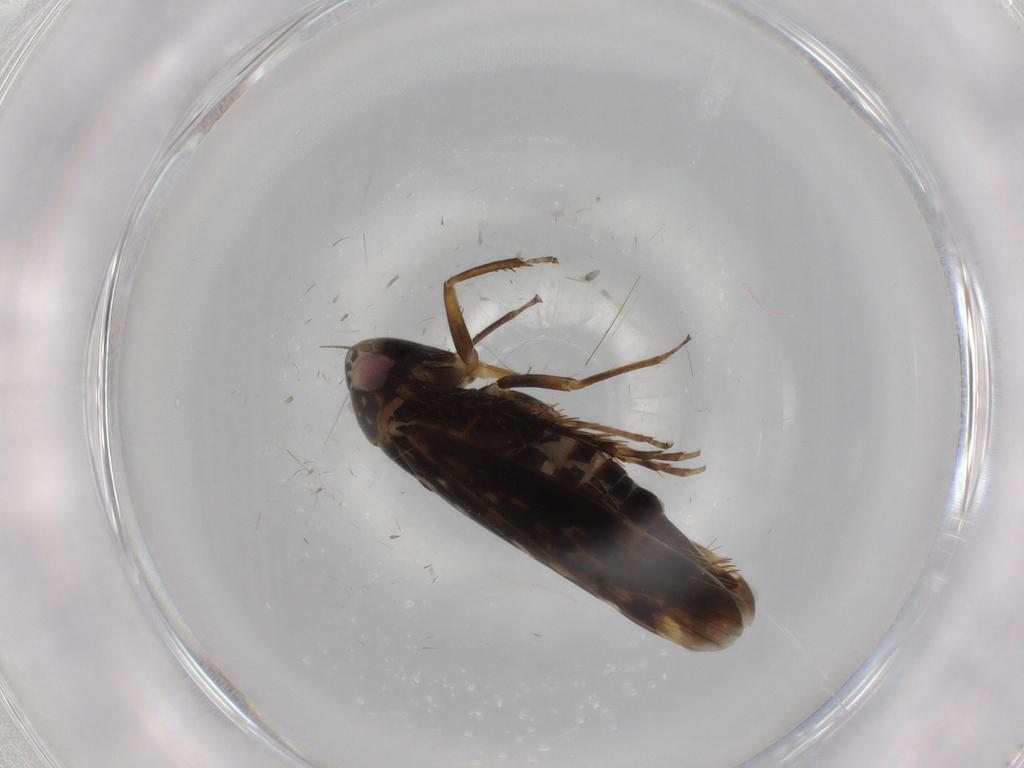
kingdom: Animalia
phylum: Arthropoda
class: Insecta
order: Hemiptera
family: Cicadellidae
